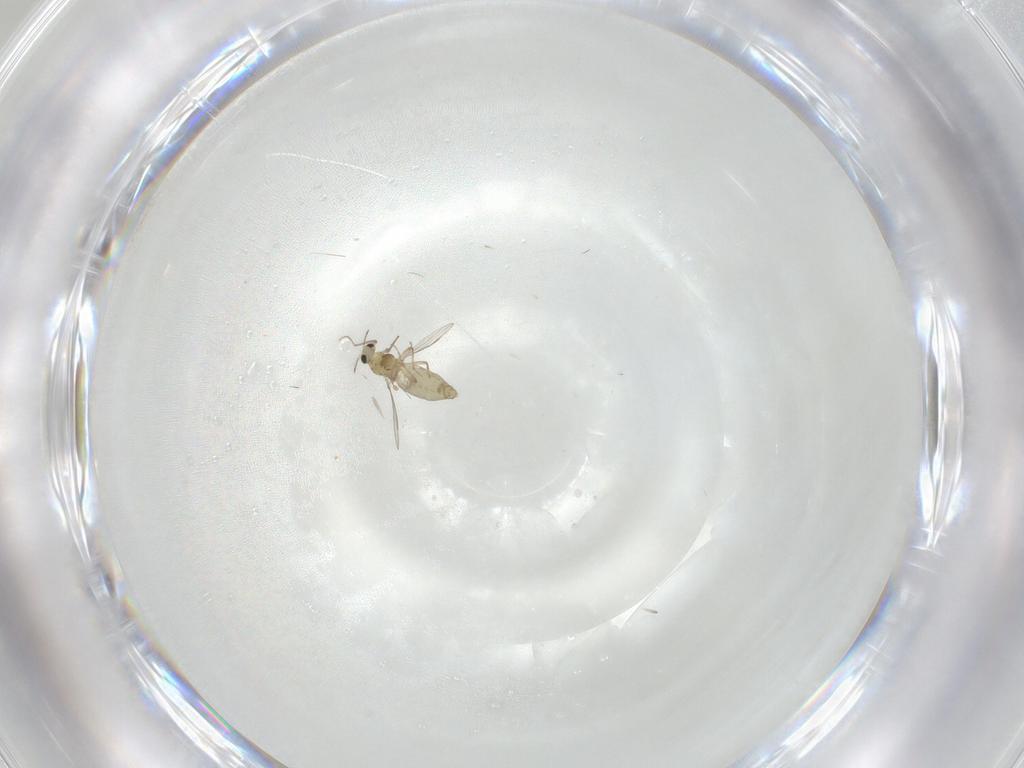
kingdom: Animalia
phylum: Arthropoda
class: Insecta
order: Diptera
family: Chironomidae
